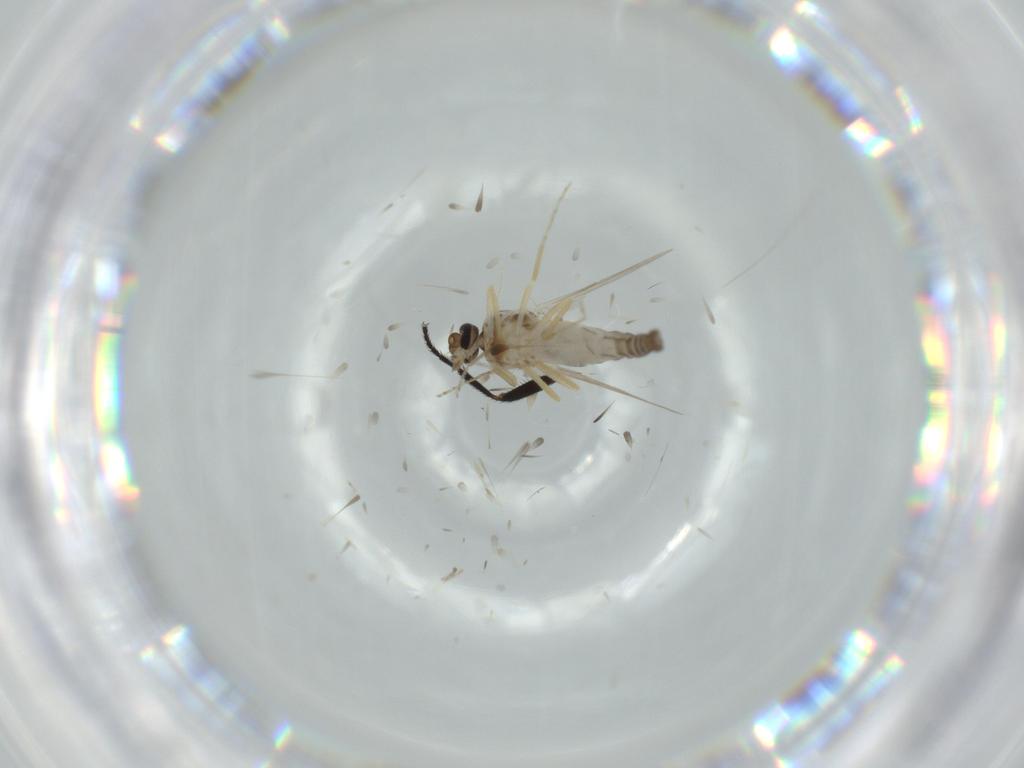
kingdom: Animalia
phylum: Arthropoda
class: Insecta
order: Diptera
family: Ceratopogonidae
